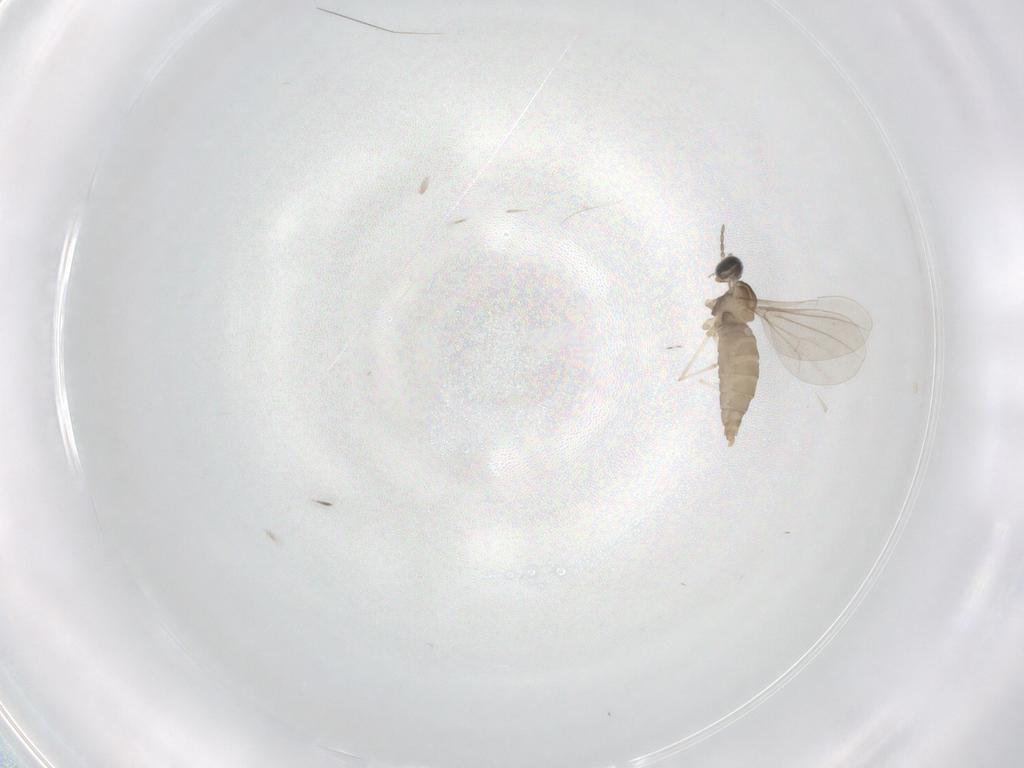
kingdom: Animalia
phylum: Arthropoda
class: Insecta
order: Diptera
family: Cecidomyiidae
